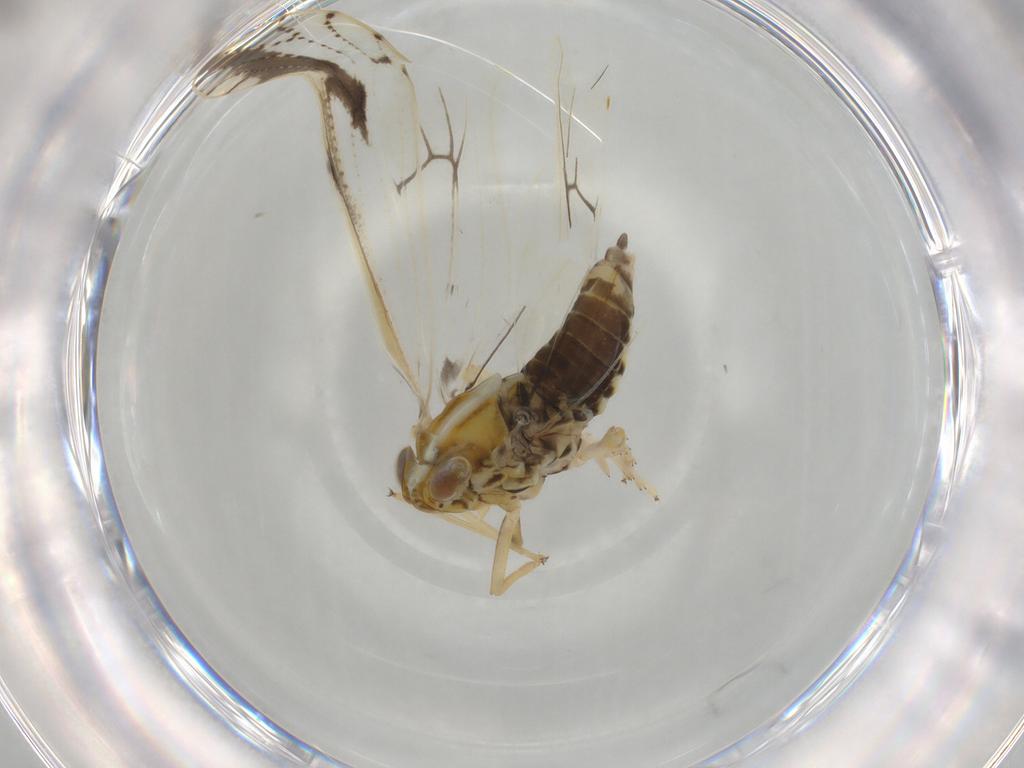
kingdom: Animalia
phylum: Arthropoda
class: Insecta
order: Hemiptera
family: Delphacidae
